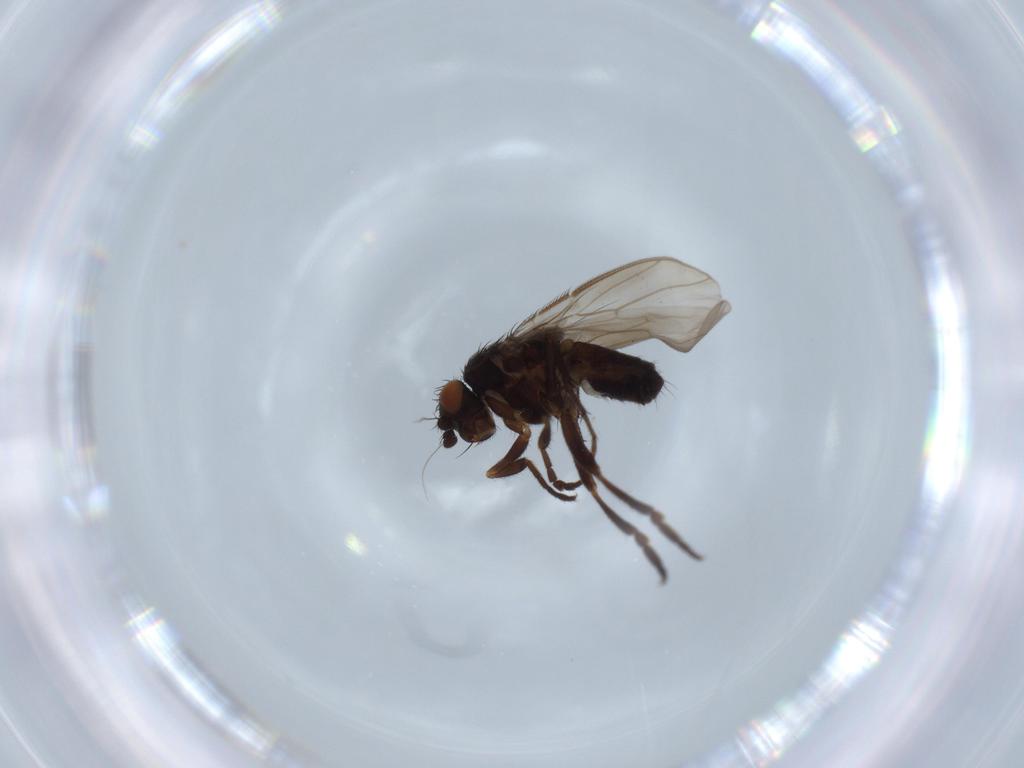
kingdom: Animalia
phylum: Arthropoda
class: Insecta
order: Diptera
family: Sphaeroceridae
